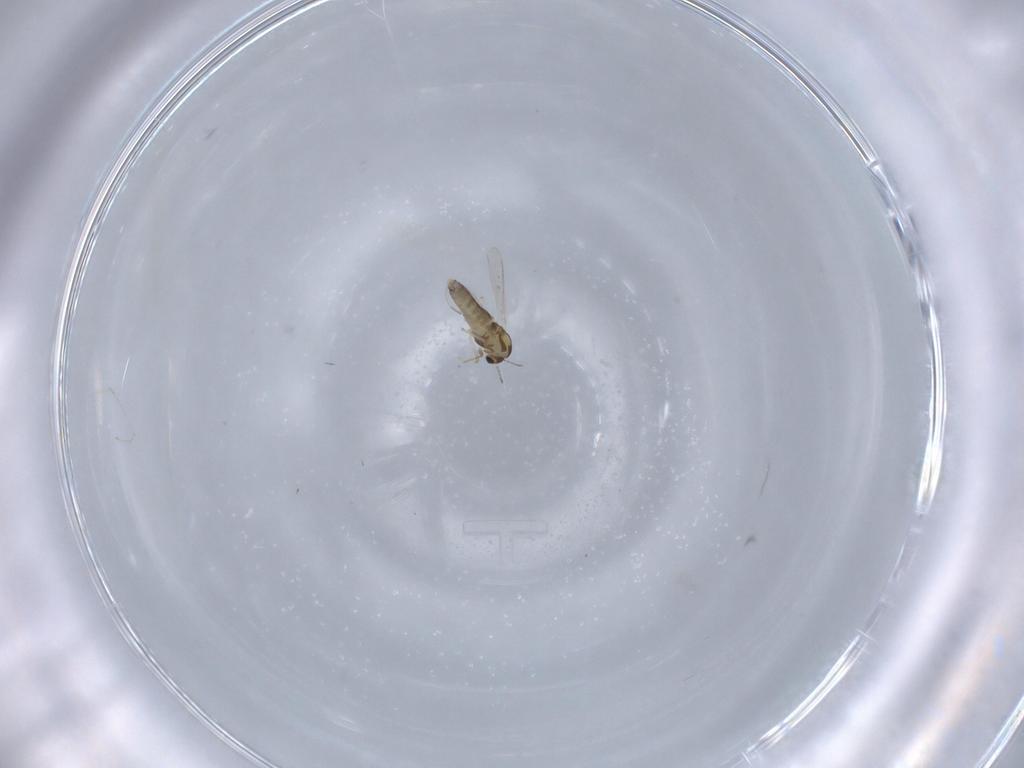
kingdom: Animalia
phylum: Arthropoda
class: Insecta
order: Diptera
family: Chironomidae
